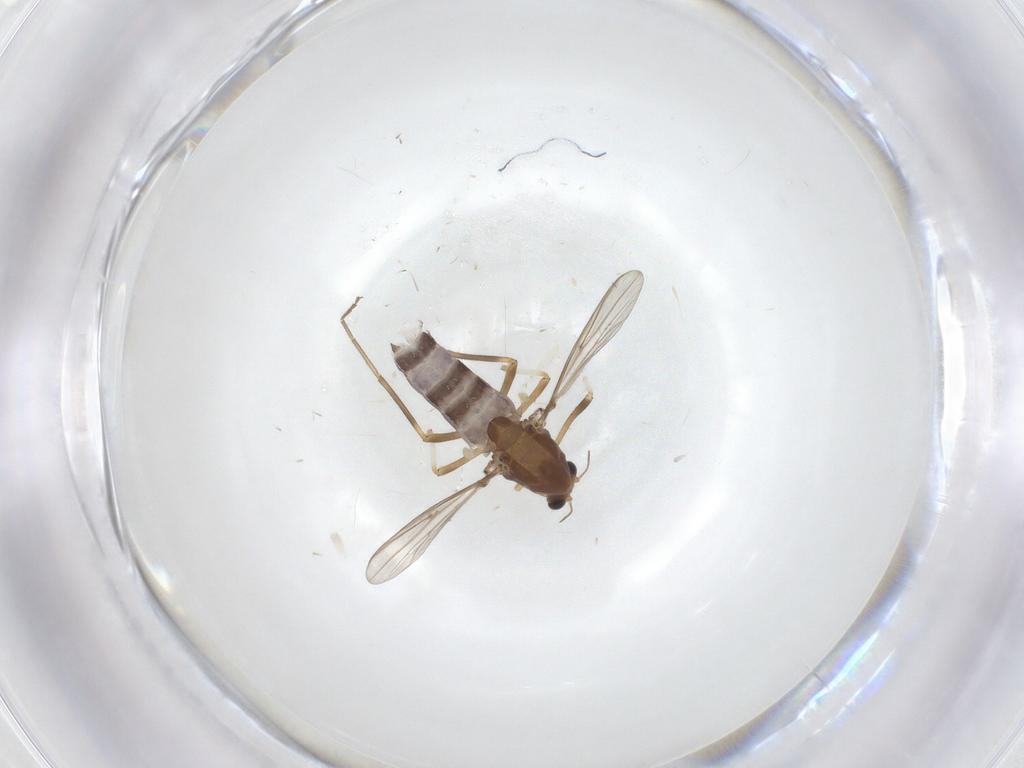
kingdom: Animalia
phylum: Arthropoda
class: Insecta
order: Diptera
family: Chironomidae
